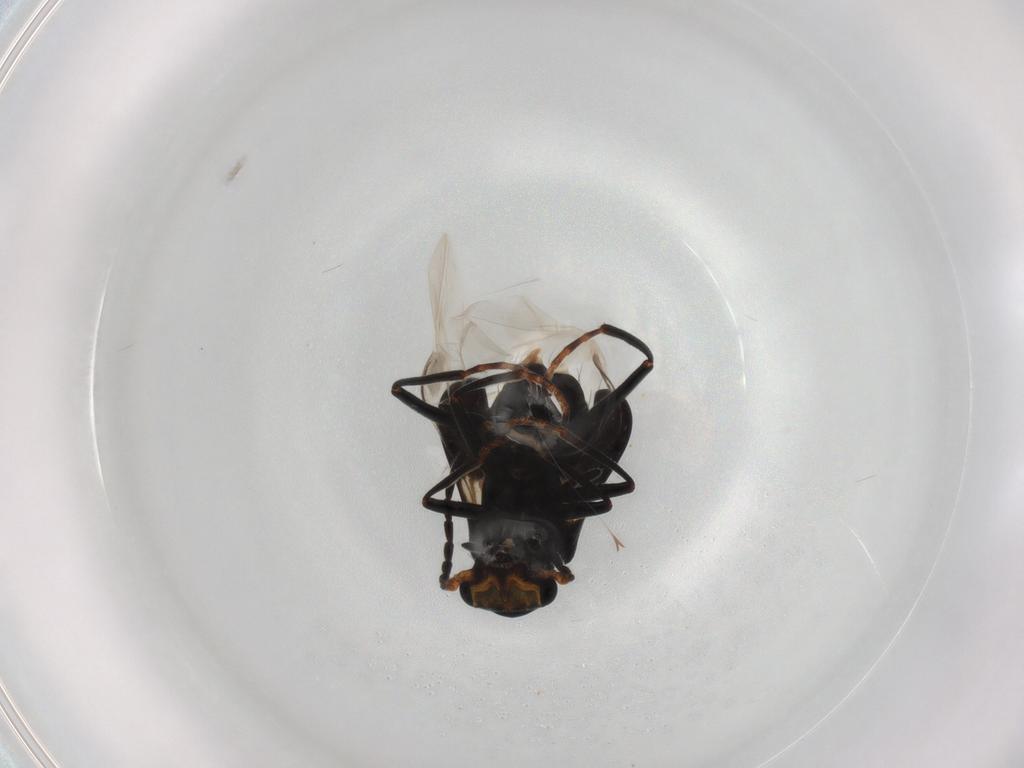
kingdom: Animalia
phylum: Arthropoda
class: Insecta
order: Coleoptera
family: Melyridae
